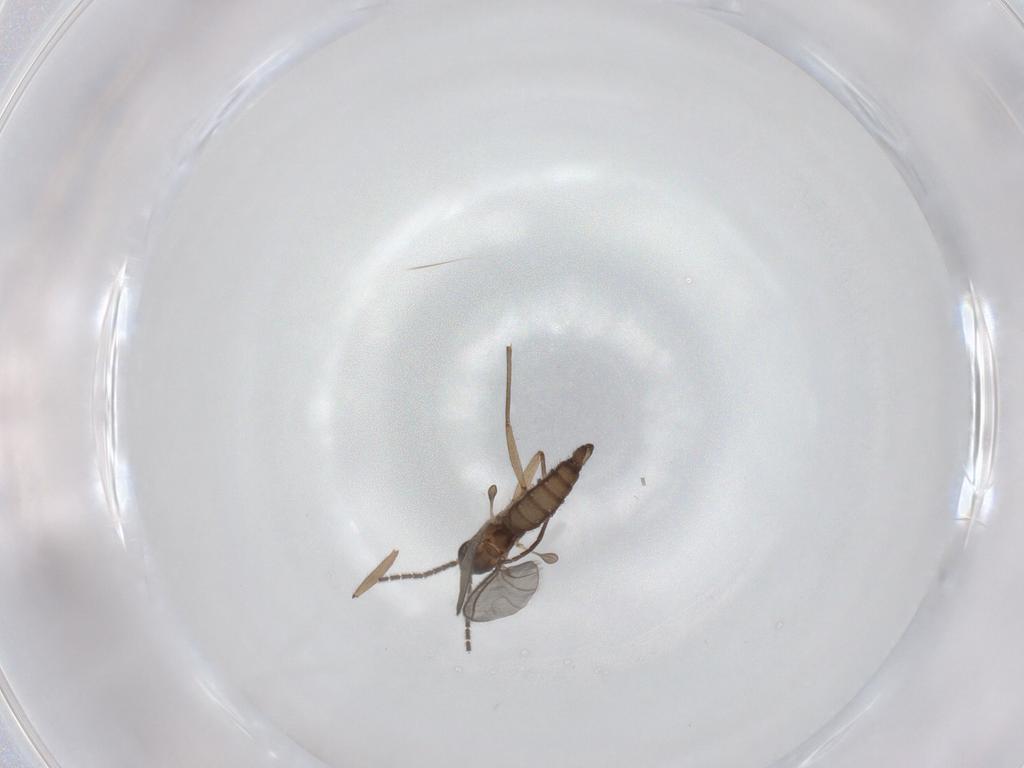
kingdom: Animalia
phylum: Arthropoda
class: Insecta
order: Diptera
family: Sciaridae
